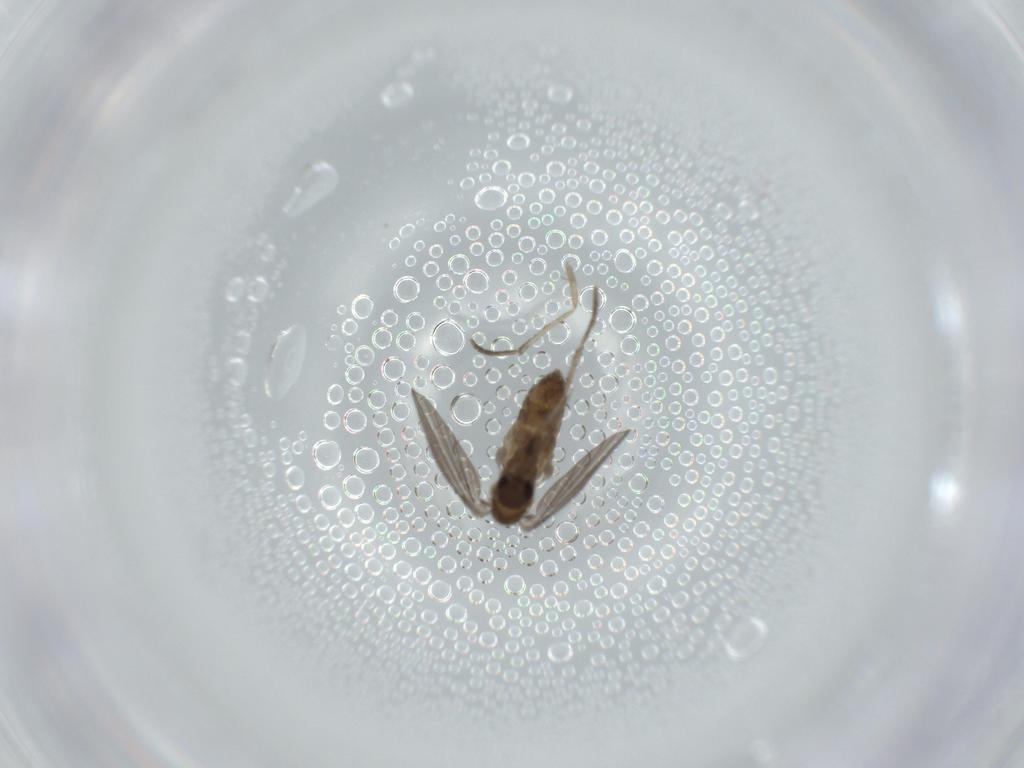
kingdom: Animalia
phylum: Arthropoda
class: Insecta
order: Diptera
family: Psychodidae
